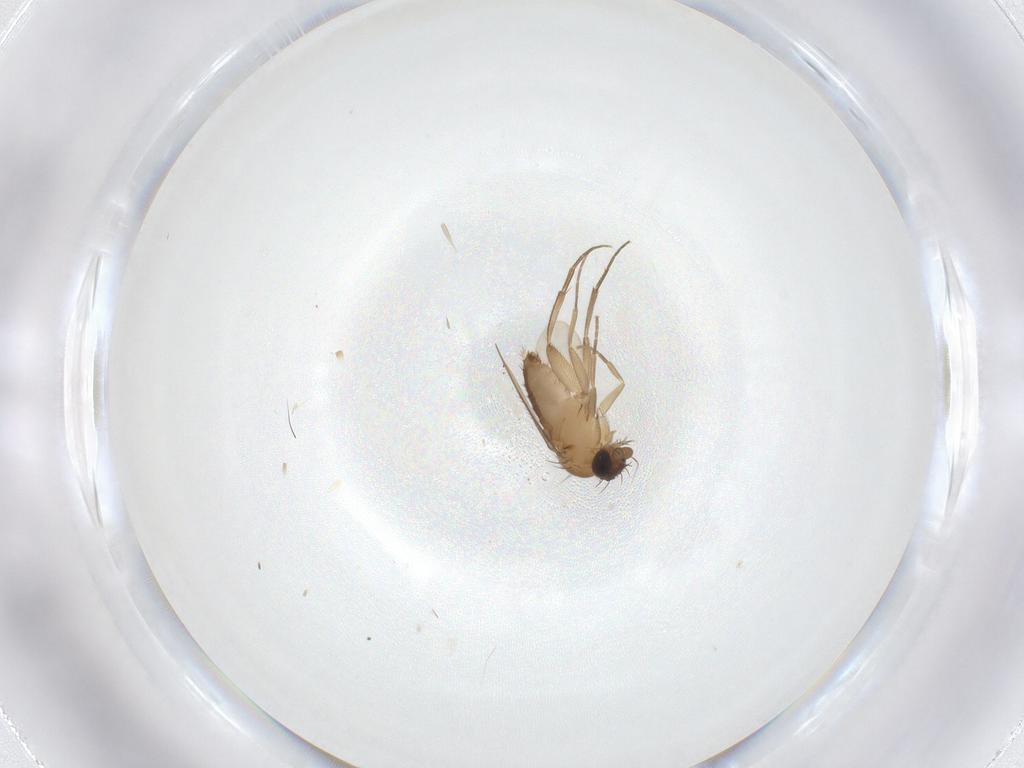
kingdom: Animalia
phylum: Arthropoda
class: Insecta
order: Diptera
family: Phoridae
